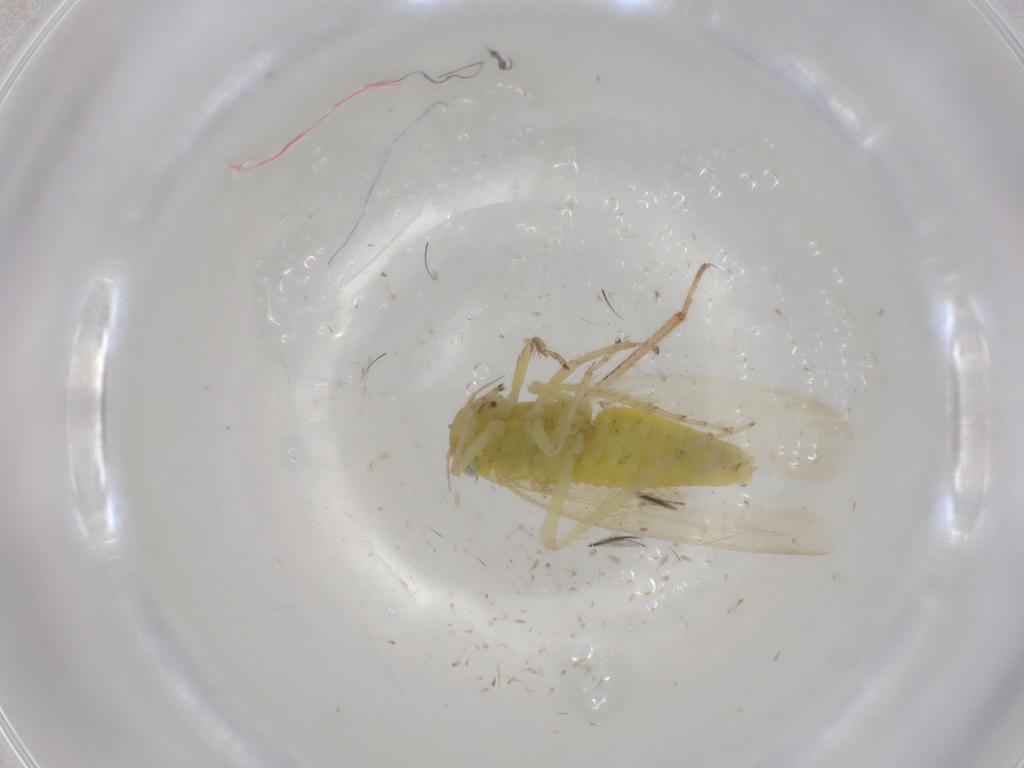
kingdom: Animalia
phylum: Arthropoda
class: Insecta
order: Hemiptera
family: Cicadellidae
